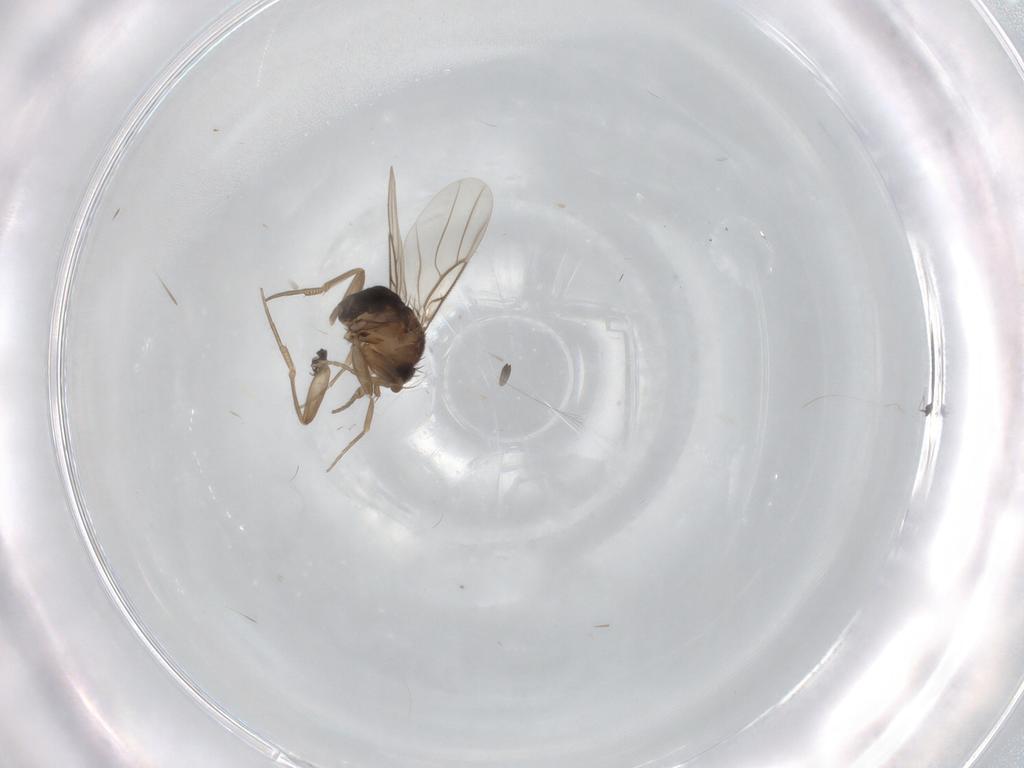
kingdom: Animalia
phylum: Arthropoda
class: Insecta
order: Diptera
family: Phoridae
